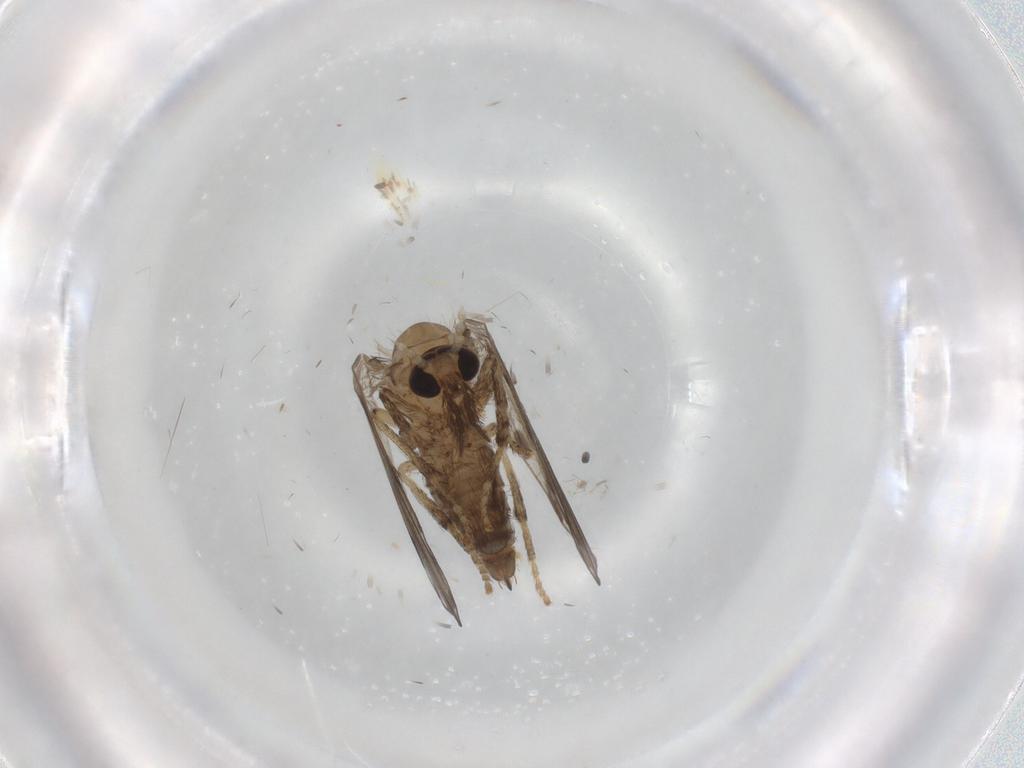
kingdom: Animalia
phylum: Arthropoda
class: Insecta
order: Diptera
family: Psychodidae
